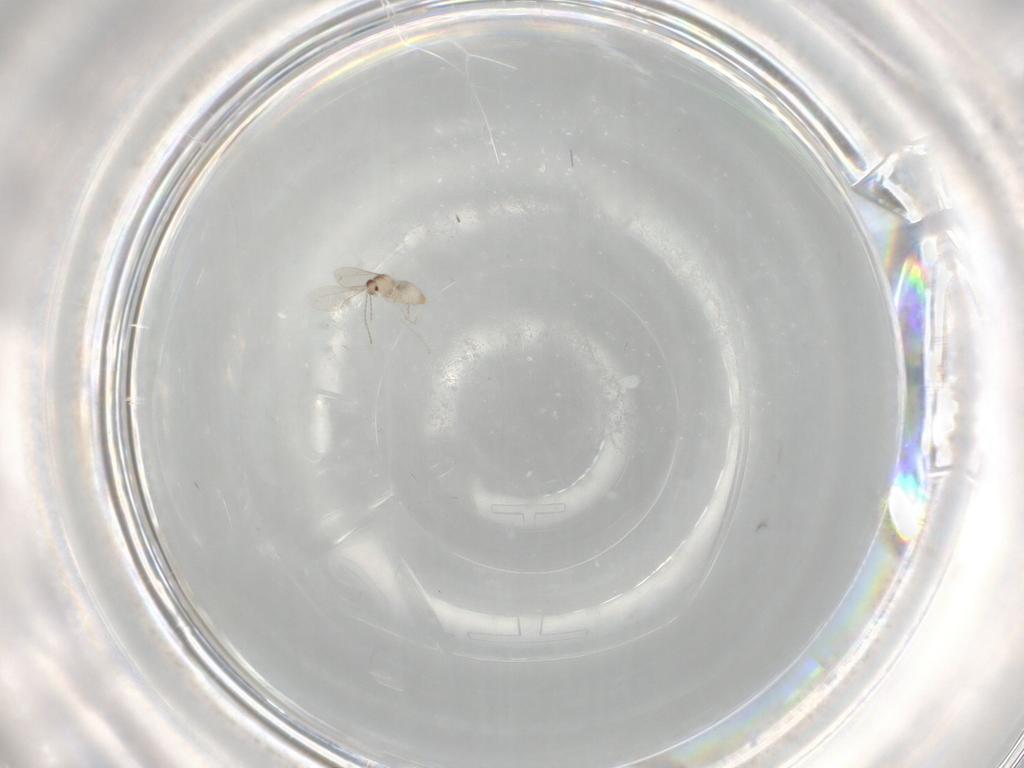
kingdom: Animalia
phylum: Arthropoda
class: Insecta
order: Diptera
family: Cecidomyiidae
